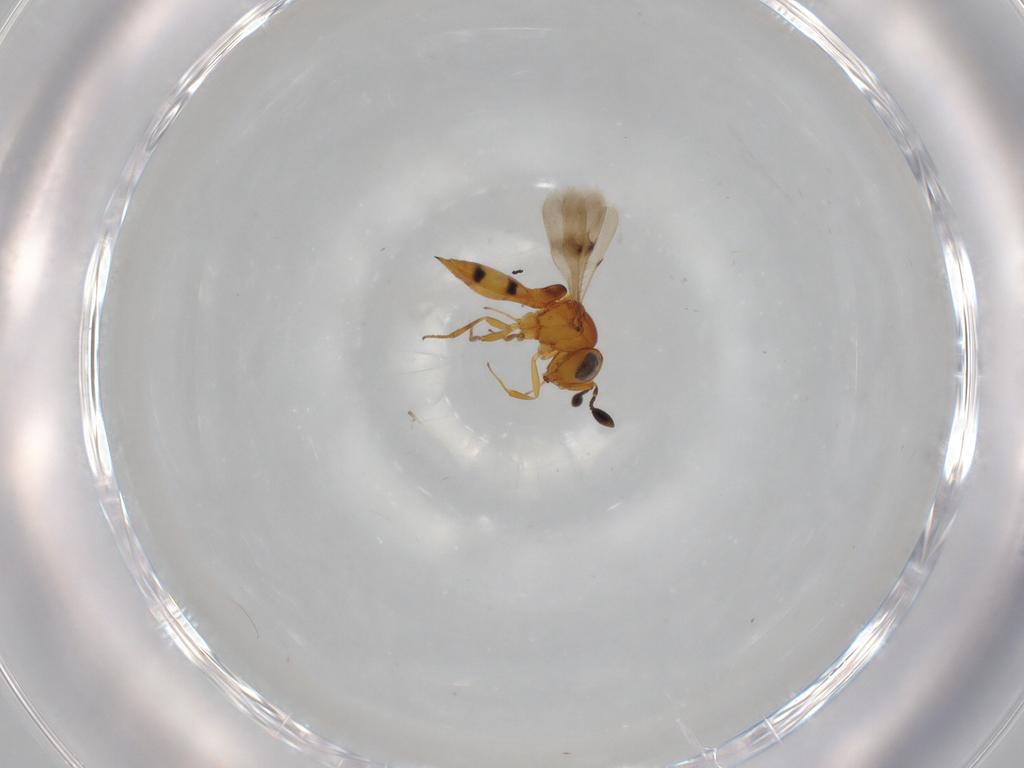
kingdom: Animalia
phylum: Arthropoda
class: Insecta
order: Hymenoptera
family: Scelionidae
